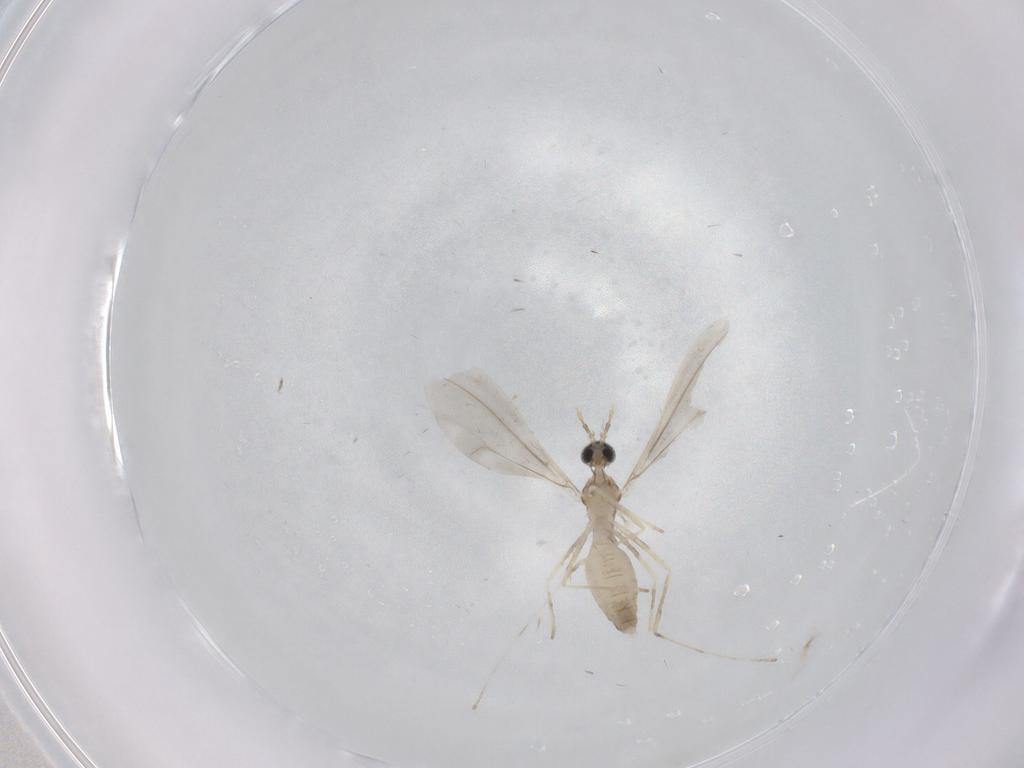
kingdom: Animalia
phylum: Arthropoda
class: Insecta
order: Diptera
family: Cecidomyiidae
